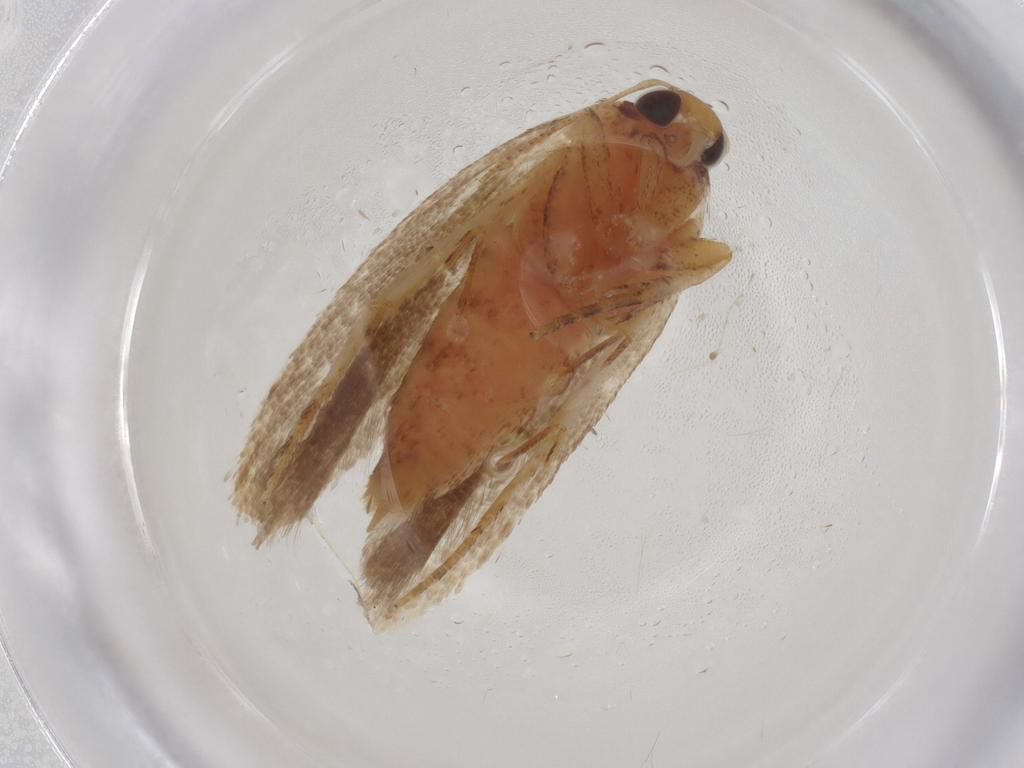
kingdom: Animalia
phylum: Arthropoda
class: Insecta
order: Lepidoptera
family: Gelechiidae
